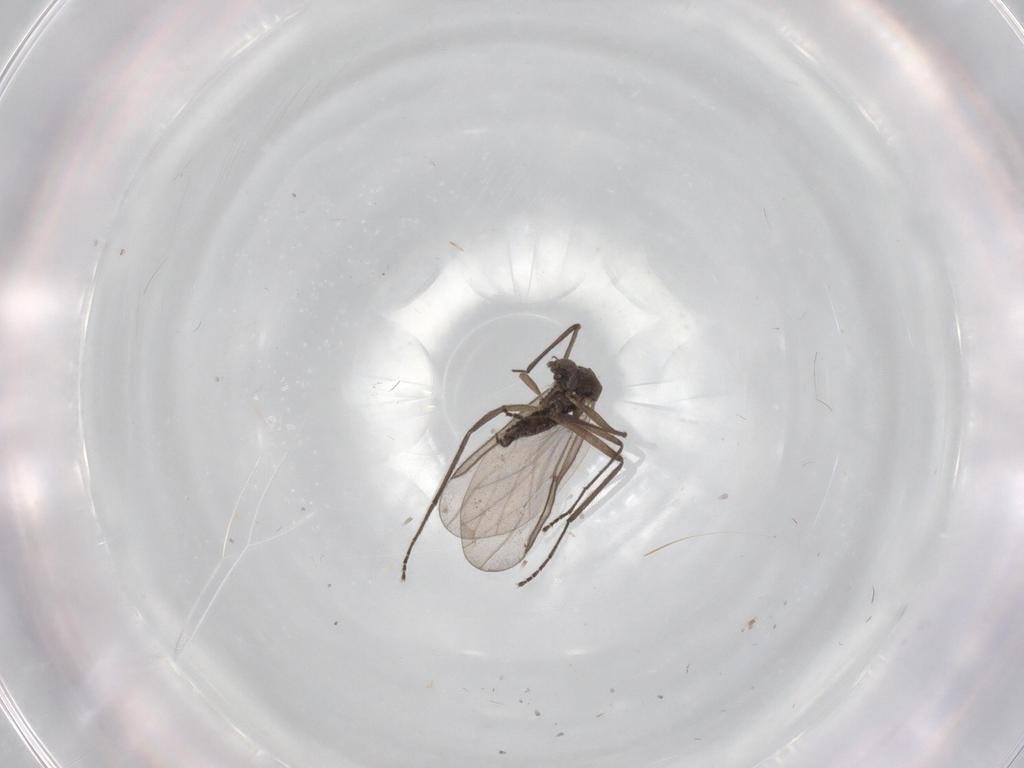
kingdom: Animalia
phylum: Arthropoda
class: Insecta
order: Diptera
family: Cecidomyiidae
